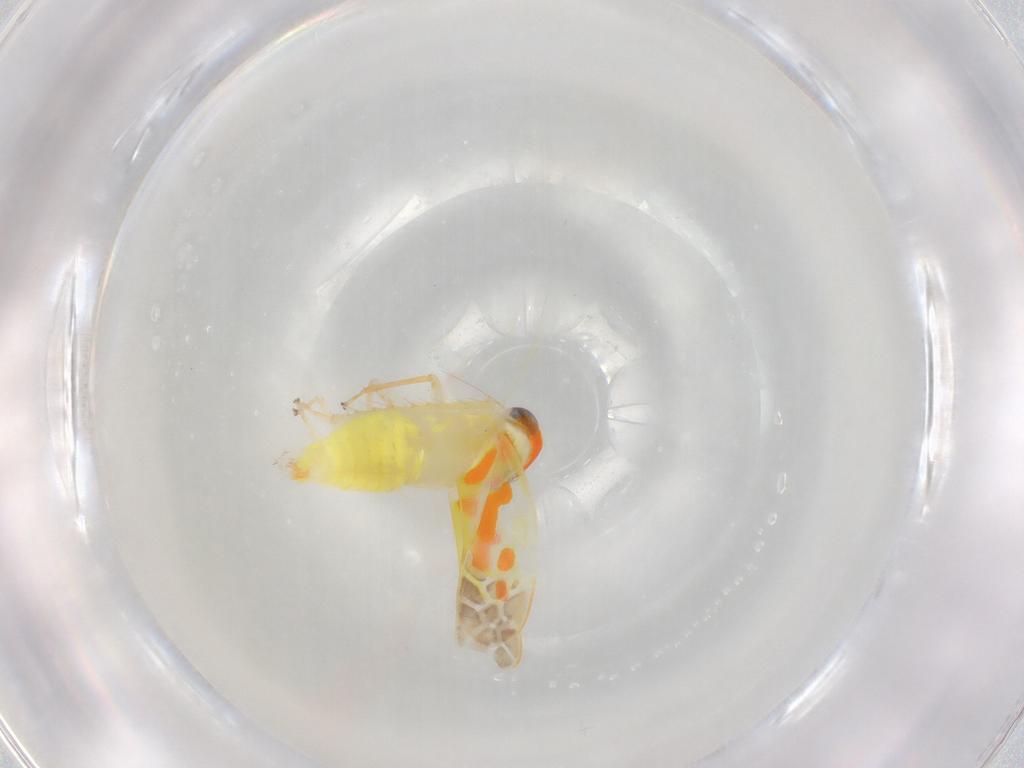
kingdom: Animalia
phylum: Arthropoda
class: Insecta
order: Hemiptera
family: Cicadellidae
